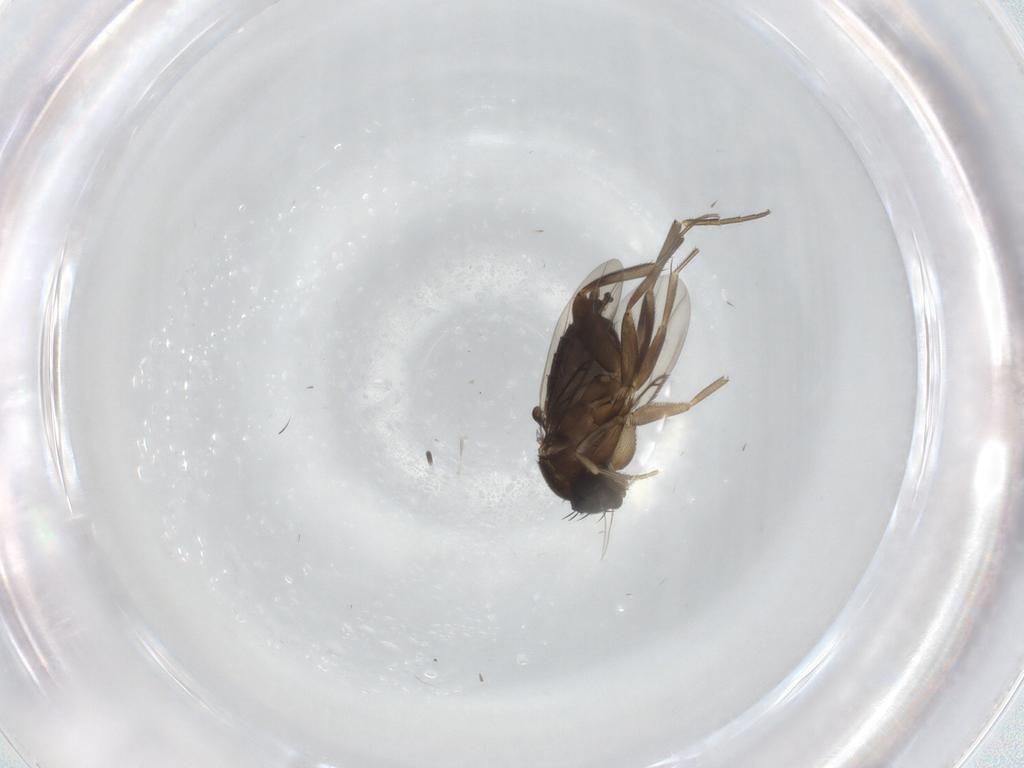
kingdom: Animalia
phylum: Arthropoda
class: Insecta
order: Diptera
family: Phoridae
